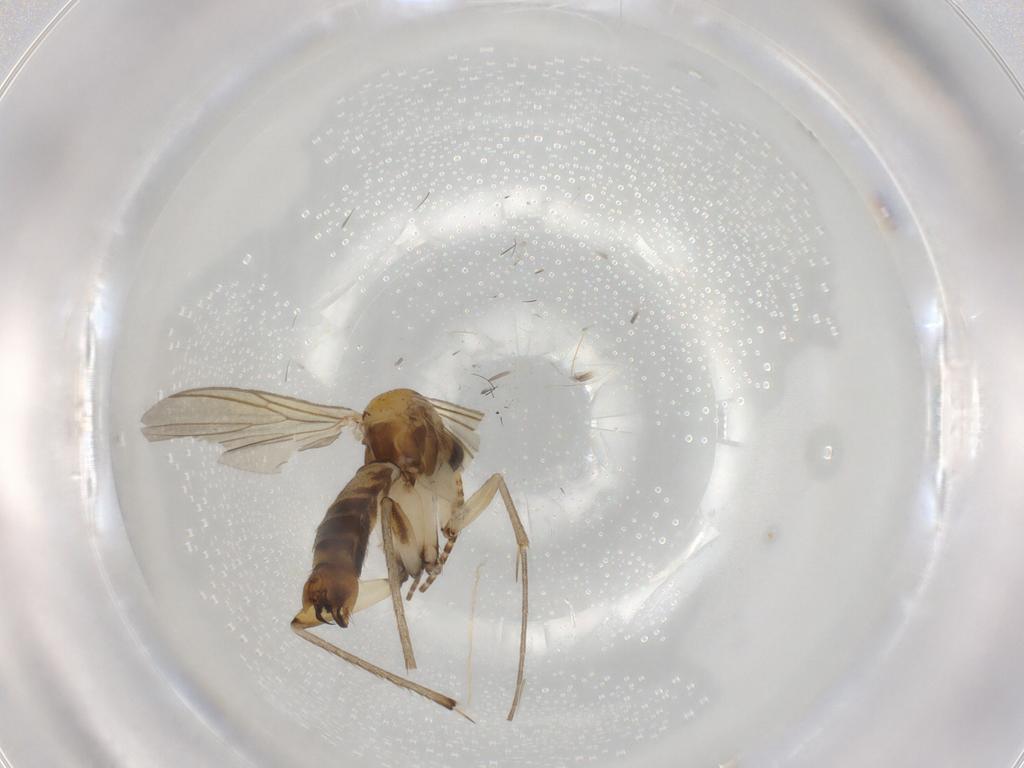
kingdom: Animalia
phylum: Arthropoda
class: Insecta
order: Diptera
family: Mycetophilidae
